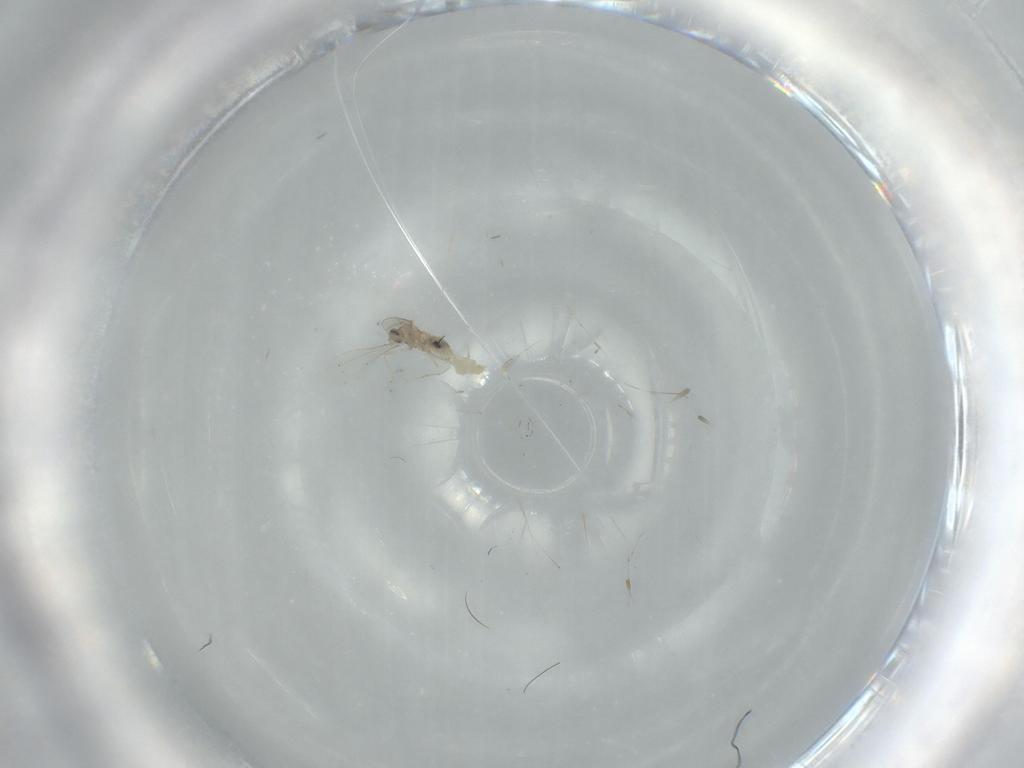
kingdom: Animalia
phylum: Arthropoda
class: Insecta
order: Diptera
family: Cecidomyiidae
